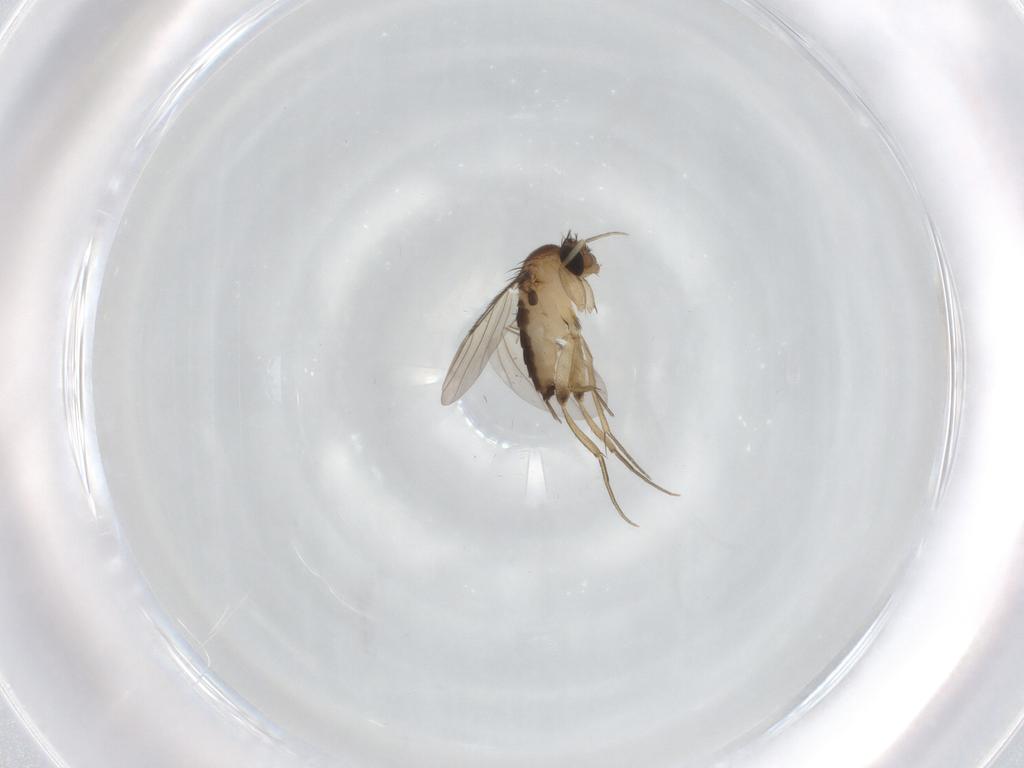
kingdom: Animalia
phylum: Arthropoda
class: Insecta
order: Diptera
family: Phoridae
